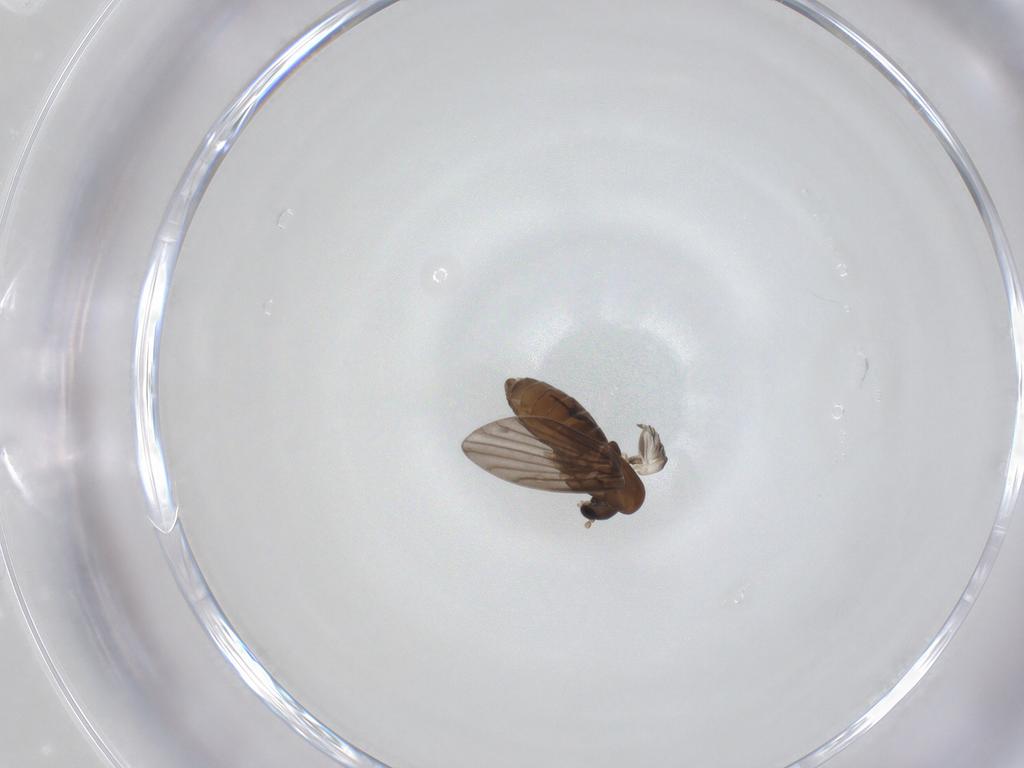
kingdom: Animalia
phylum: Arthropoda
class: Insecta
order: Diptera
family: Psychodidae
